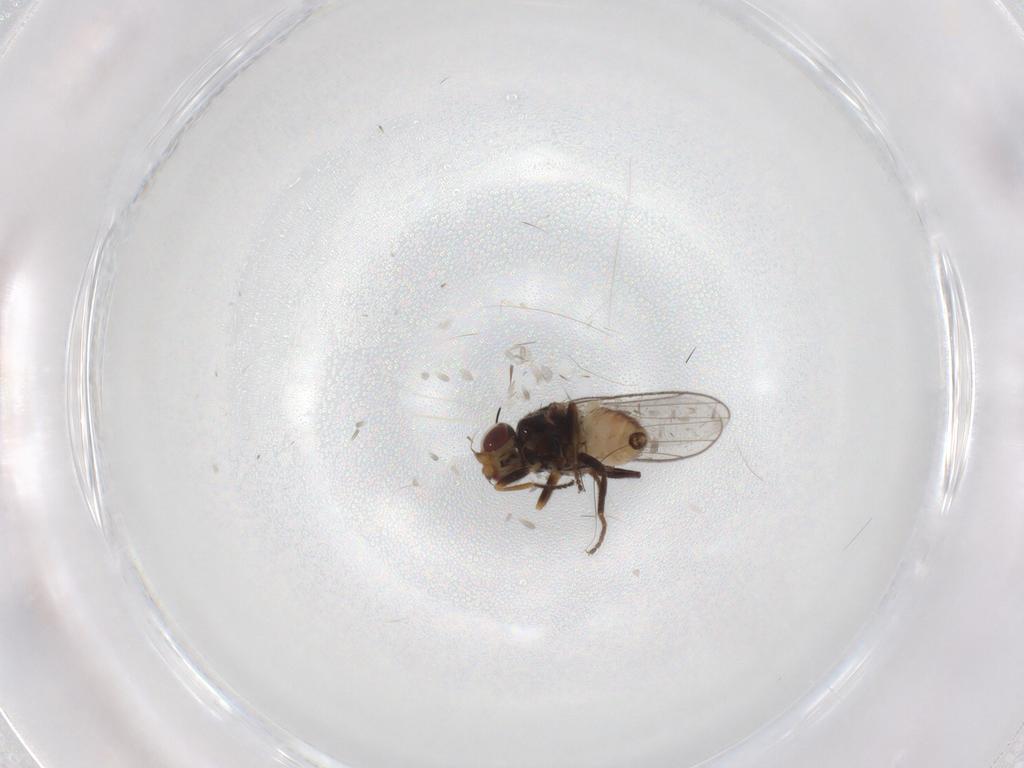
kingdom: Animalia
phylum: Arthropoda
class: Insecta
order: Diptera
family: Chloropidae
